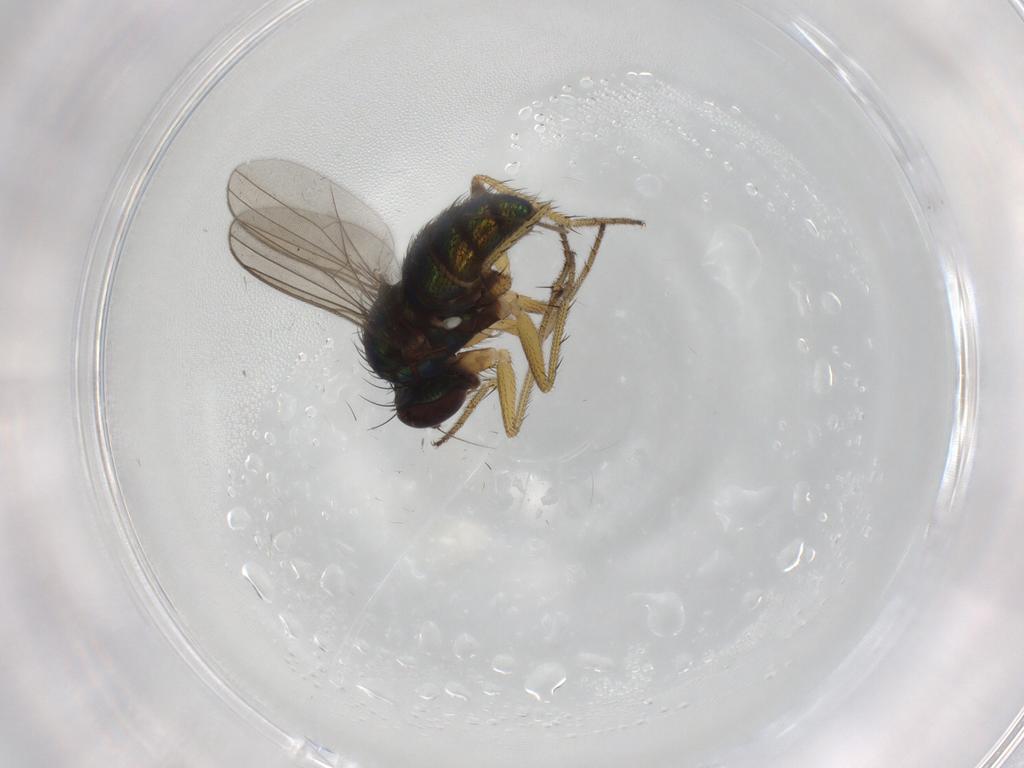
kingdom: Animalia
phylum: Arthropoda
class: Insecta
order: Diptera
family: Dolichopodidae
